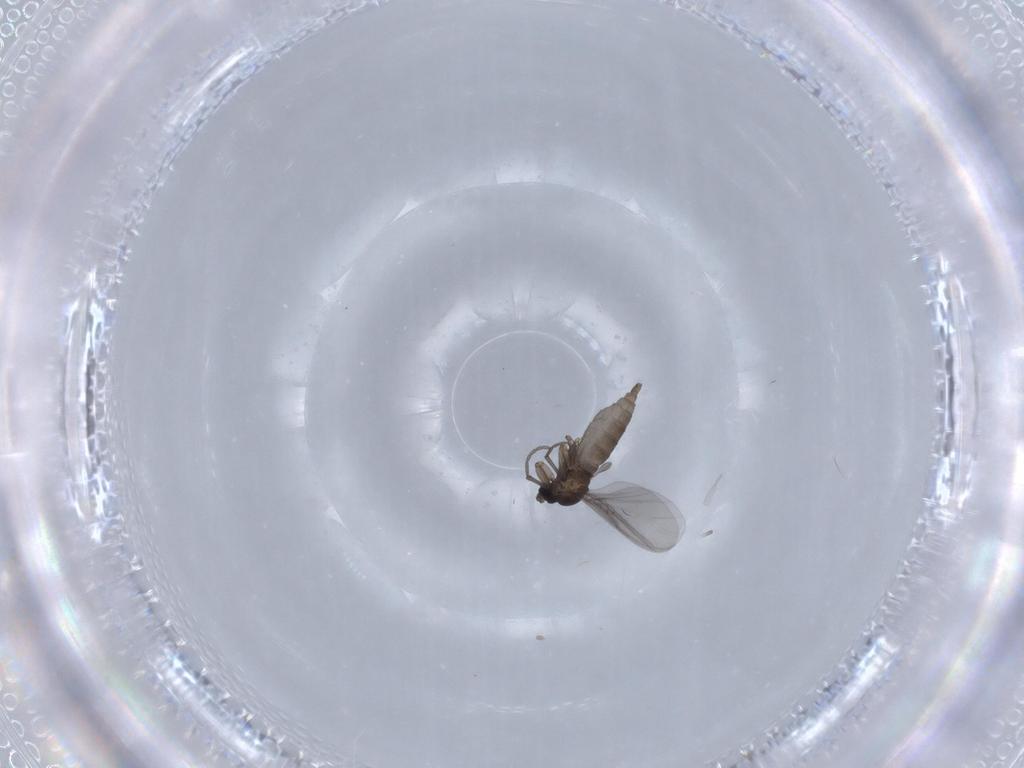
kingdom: Animalia
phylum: Arthropoda
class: Insecta
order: Diptera
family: Sciaridae
